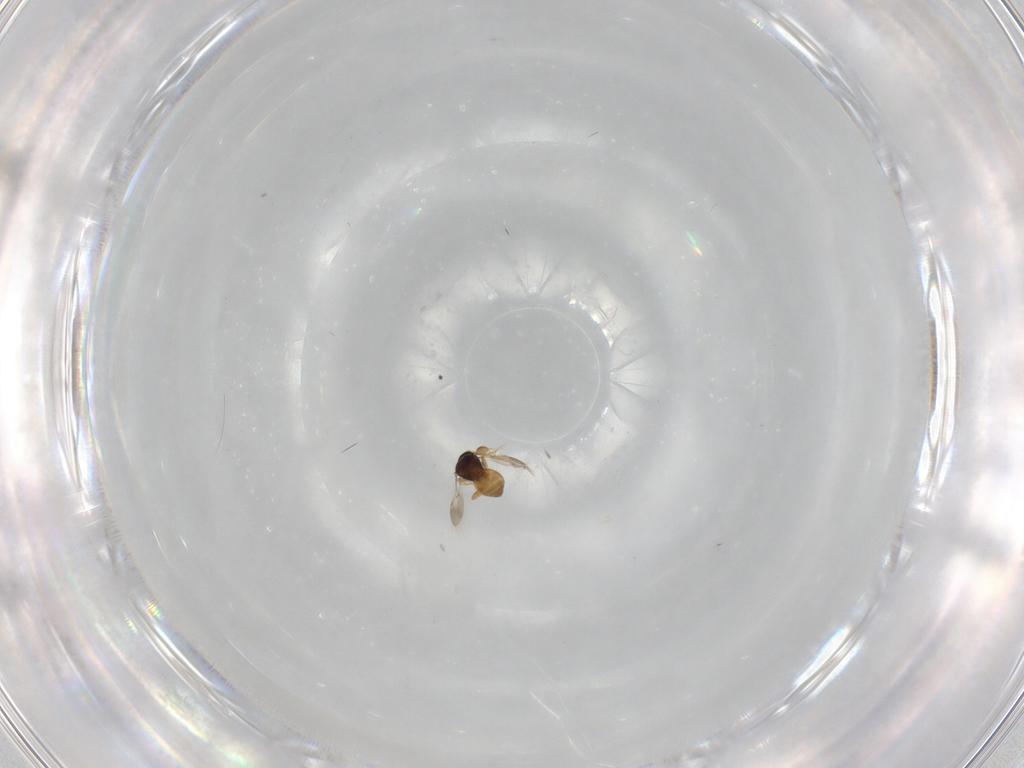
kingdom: Animalia
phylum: Arthropoda
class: Insecta
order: Hymenoptera
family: Scelionidae
